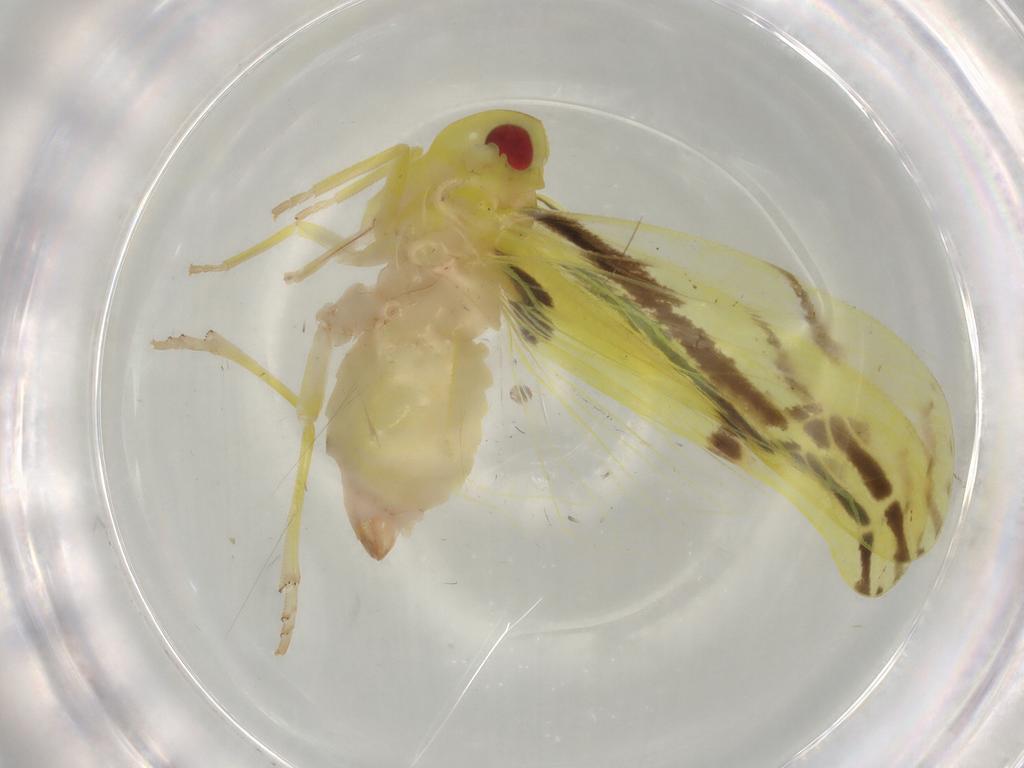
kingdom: Animalia
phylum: Arthropoda
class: Insecta
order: Hemiptera
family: Derbidae
